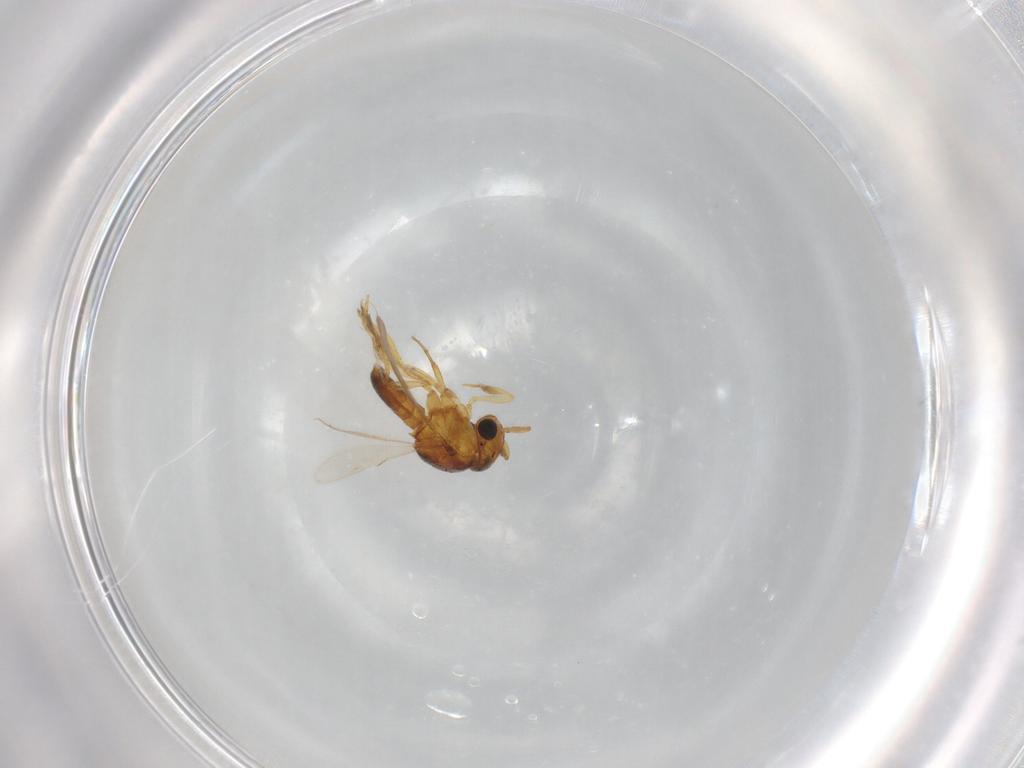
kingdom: Animalia
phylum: Arthropoda
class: Insecta
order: Hymenoptera
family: Scelionidae
